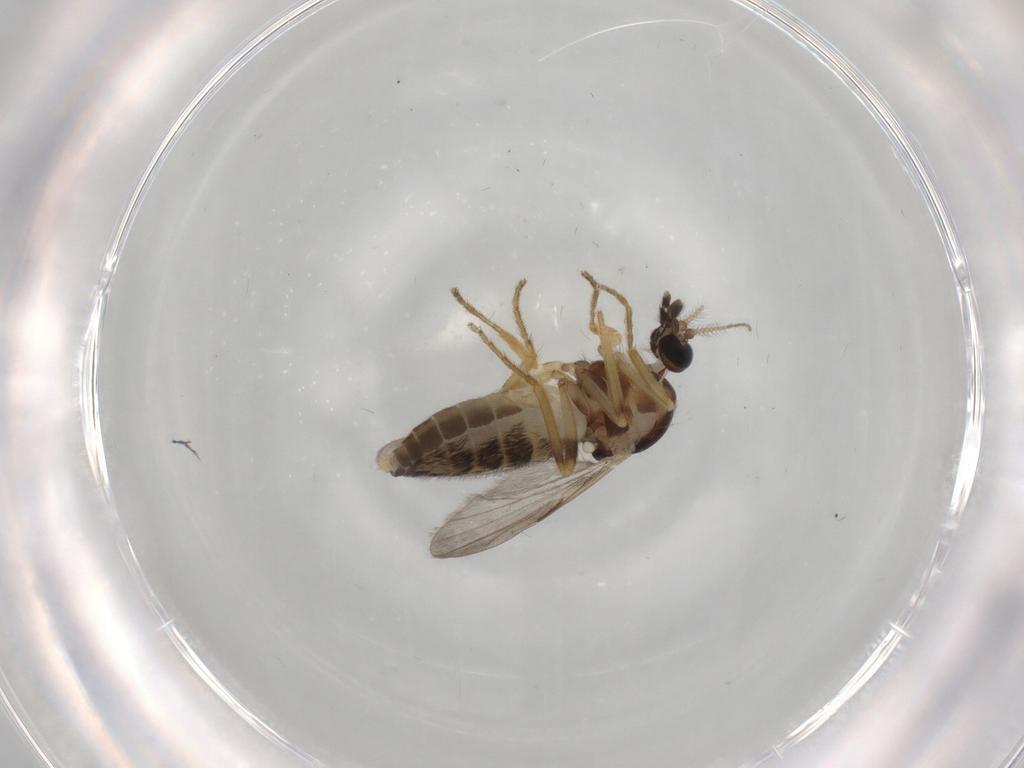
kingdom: Animalia
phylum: Arthropoda
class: Insecta
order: Diptera
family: Ceratopogonidae
